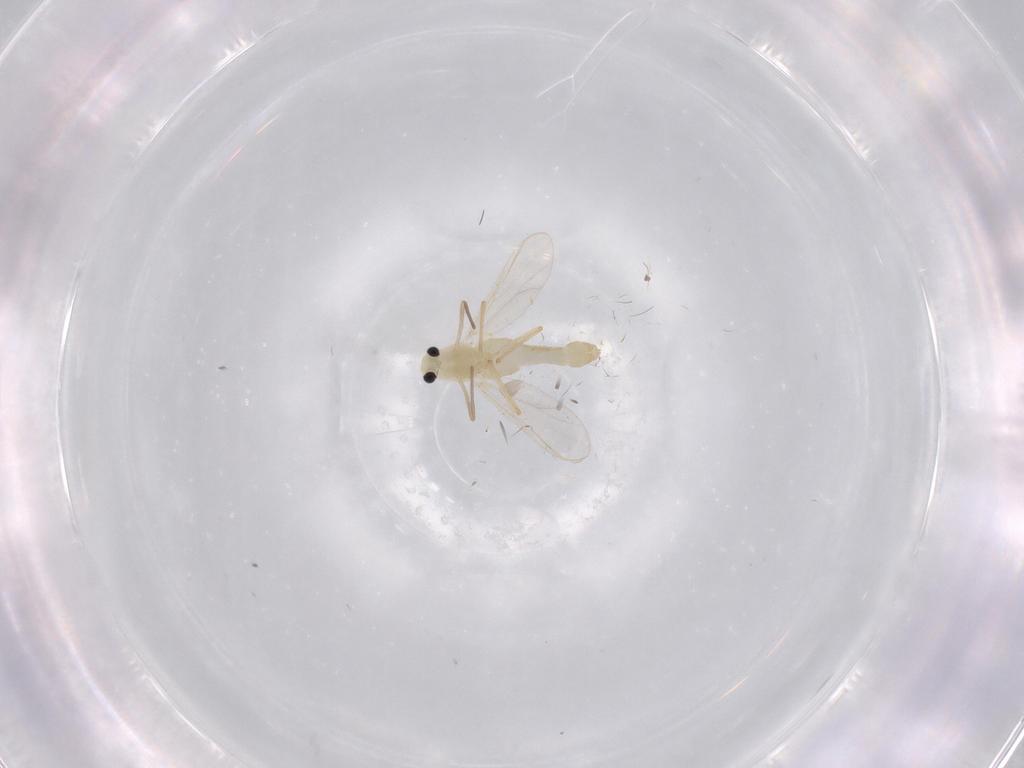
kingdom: Animalia
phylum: Arthropoda
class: Insecta
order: Diptera
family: Chironomidae
